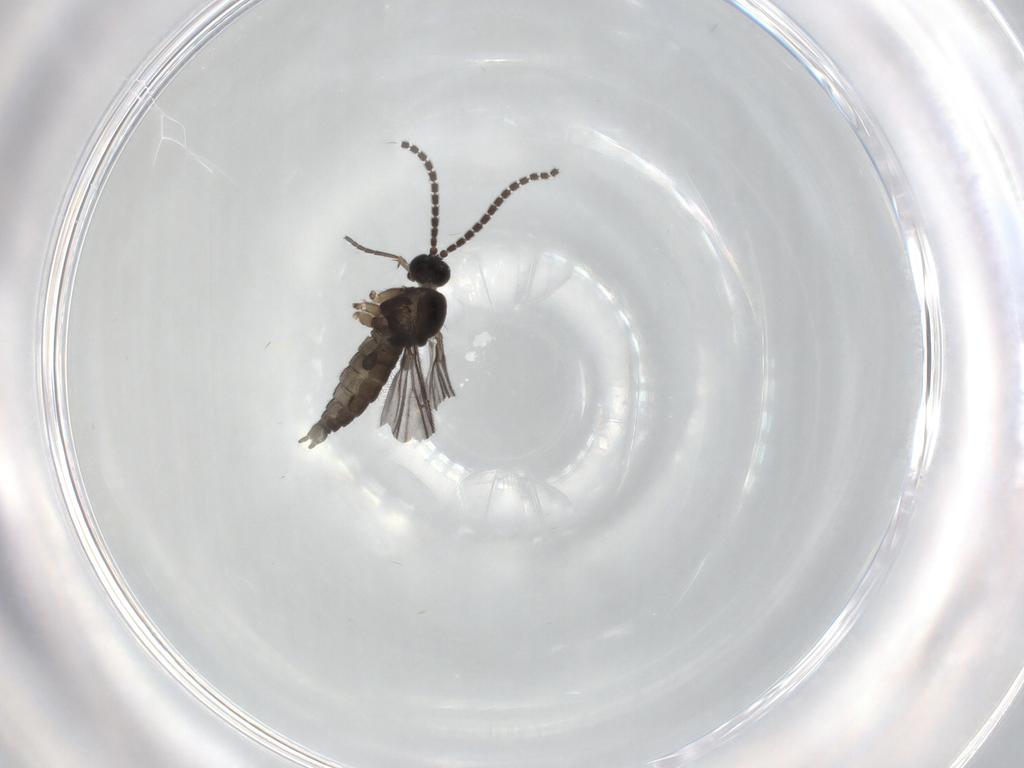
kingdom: Animalia
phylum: Arthropoda
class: Insecta
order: Diptera
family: Sciaridae
